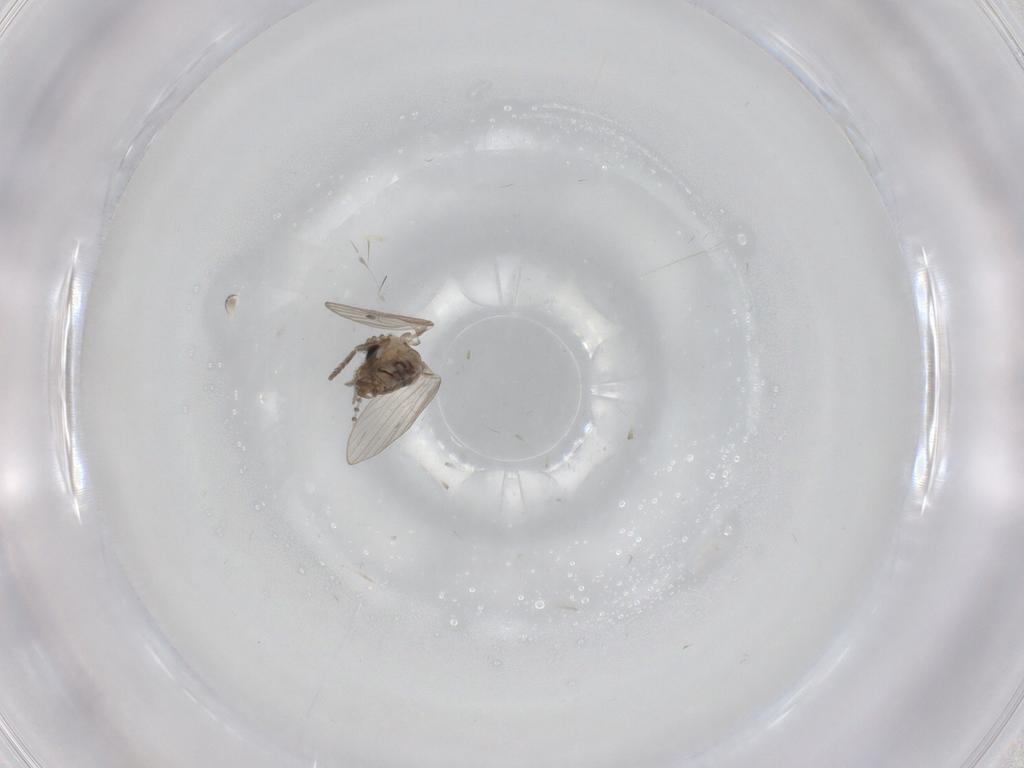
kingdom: Animalia
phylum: Arthropoda
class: Insecta
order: Diptera
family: Psychodidae
